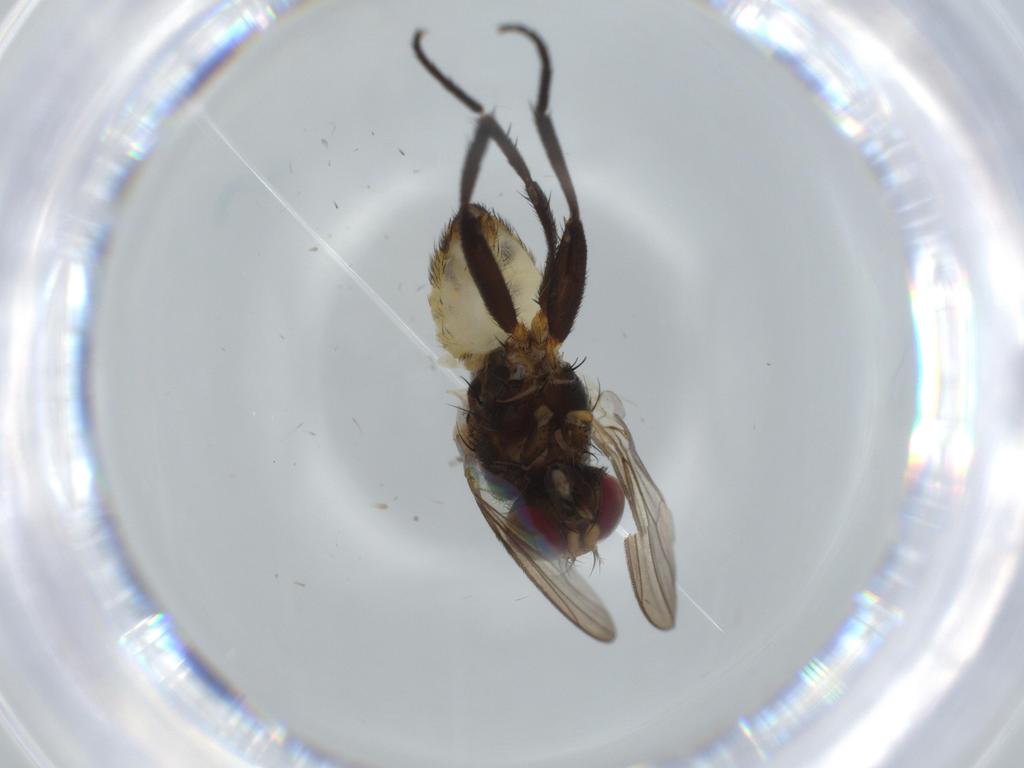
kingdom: Animalia
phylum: Arthropoda
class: Insecta
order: Diptera
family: Anthomyiidae
